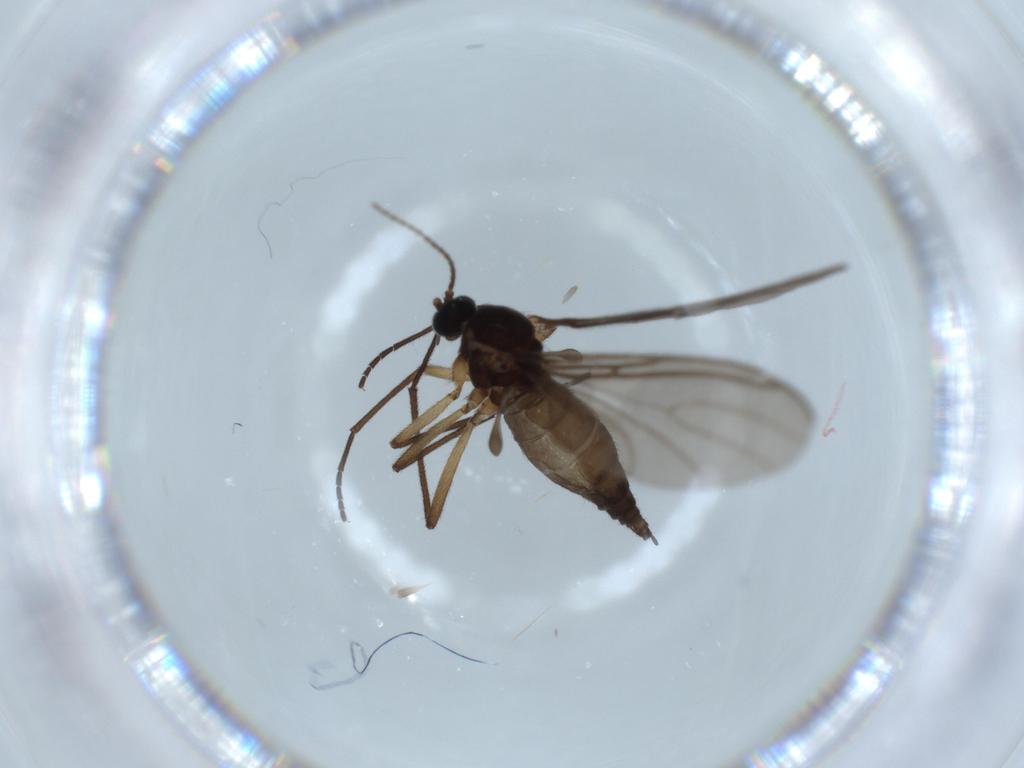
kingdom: Animalia
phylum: Arthropoda
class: Insecta
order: Diptera
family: Sciaridae
